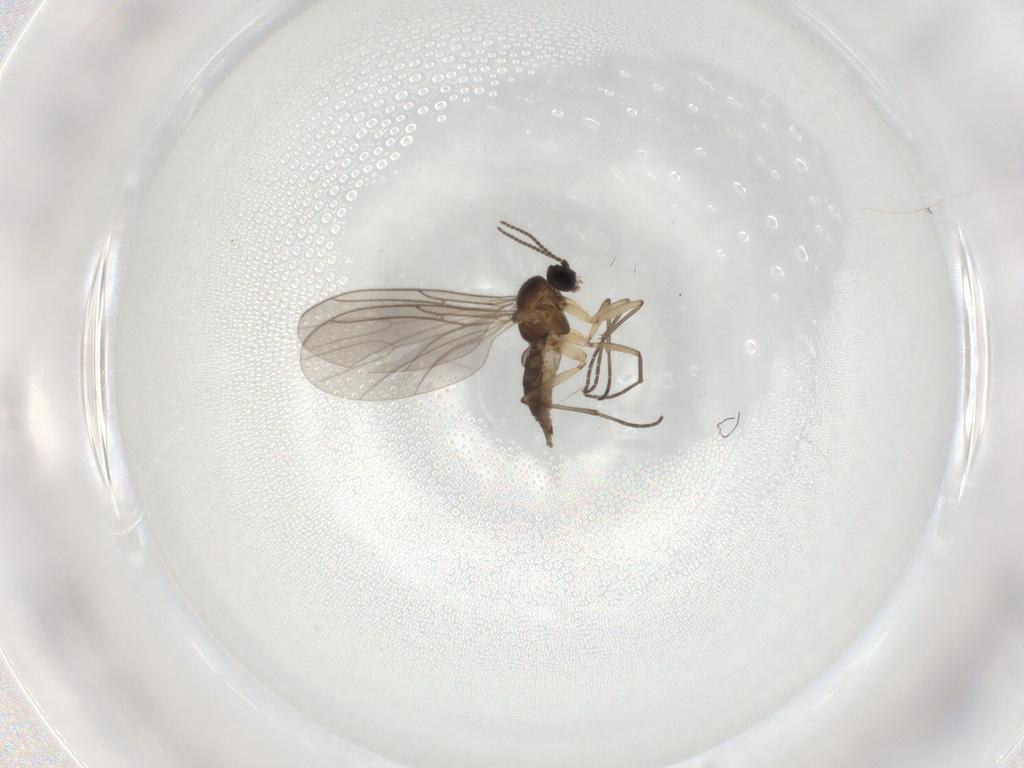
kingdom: Animalia
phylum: Arthropoda
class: Insecta
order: Diptera
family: Sciaridae
